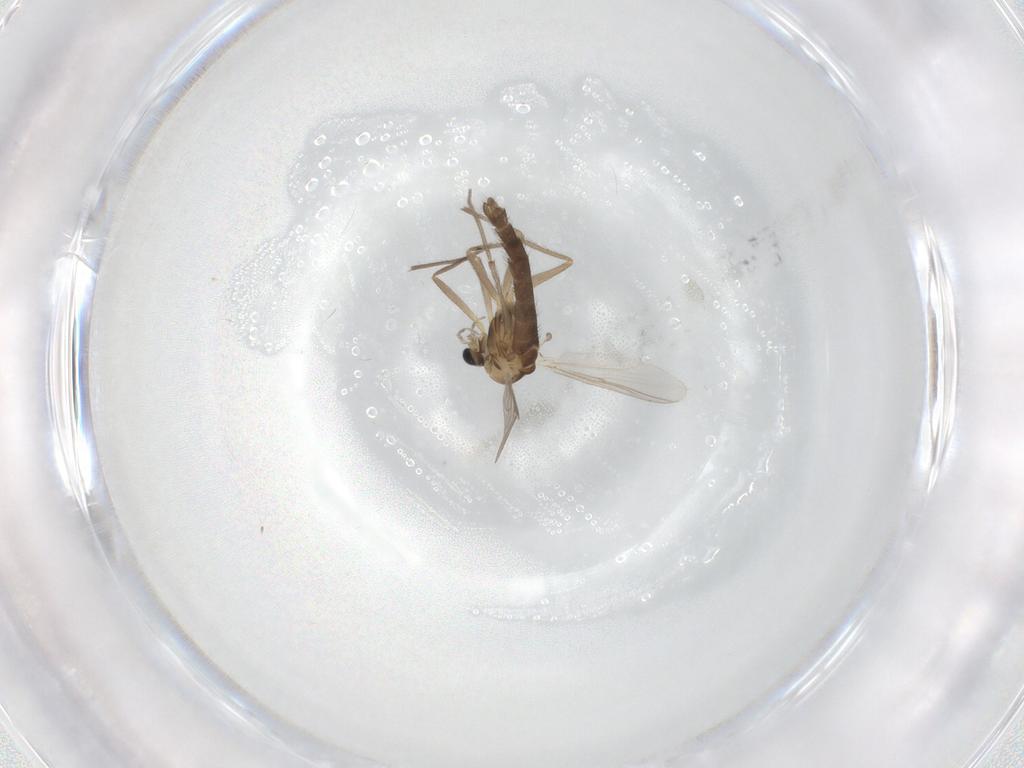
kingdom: Animalia
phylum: Arthropoda
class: Insecta
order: Diptera
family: Chironomidae
